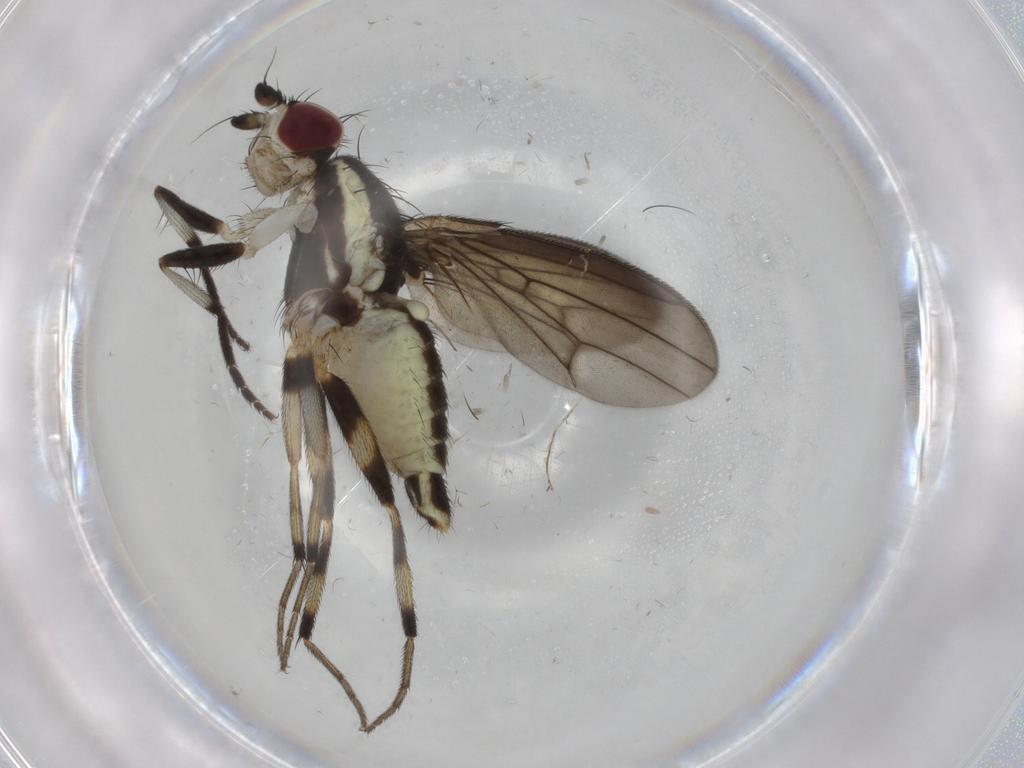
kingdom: Animalia
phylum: Arthropoda
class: Insecta
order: Diptera
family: Pseudopomyzidae
